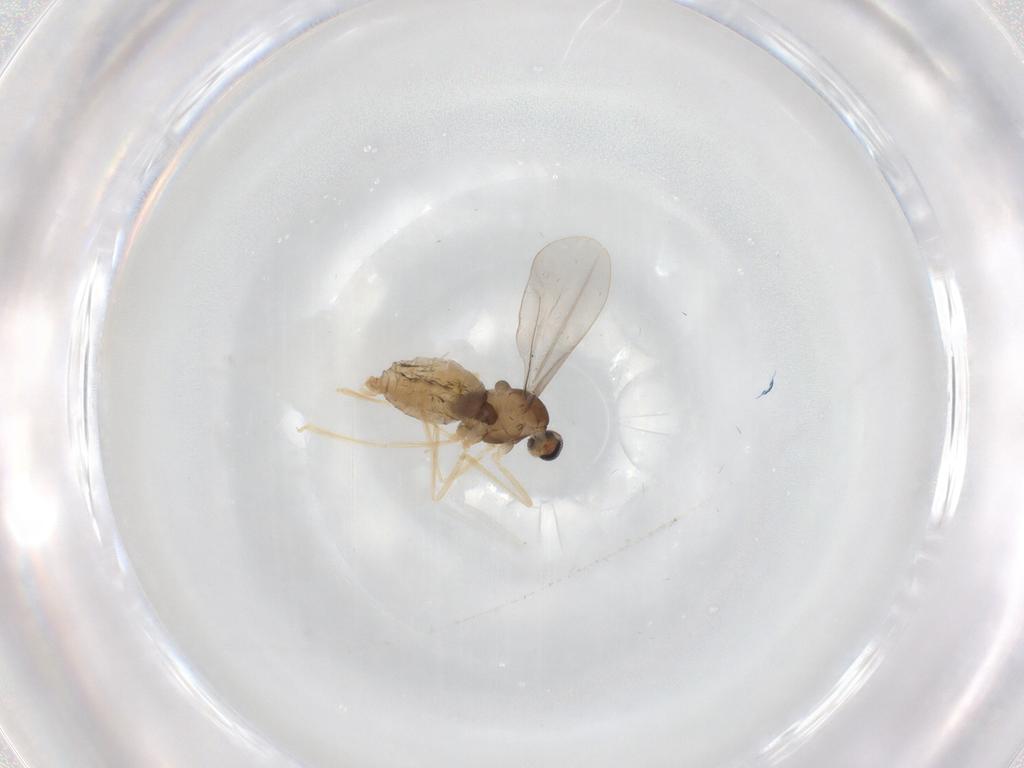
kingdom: Animalia
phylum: Arthropoda
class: Insecta
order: Diptera
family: Cecidomyiidae
